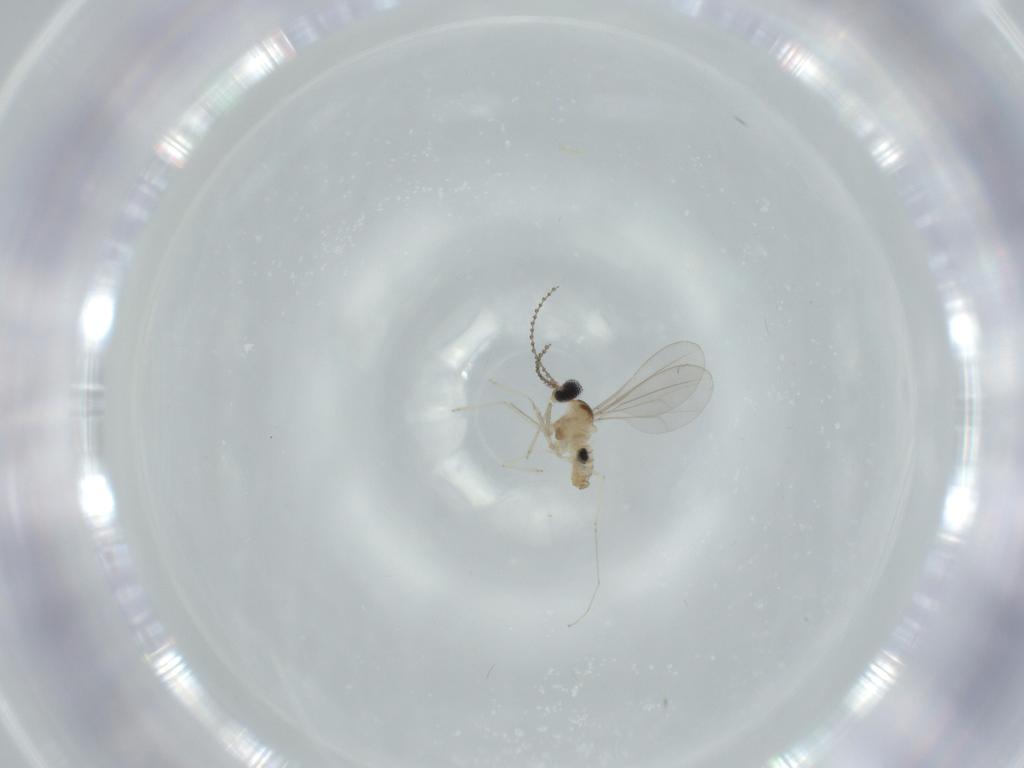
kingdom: Animalia
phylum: Arthropoda
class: Insecta
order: Diptera
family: Cecidomyiidae
